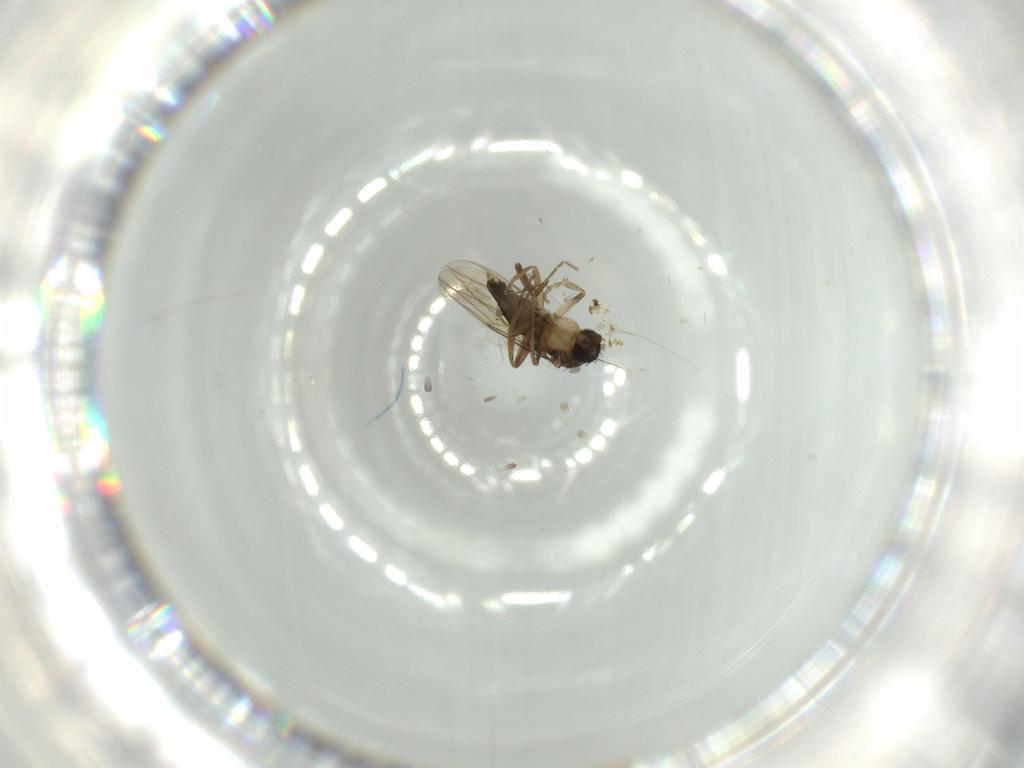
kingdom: Animalia
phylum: Arthropoda
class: Insecta
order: Diptera
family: Phoridae
